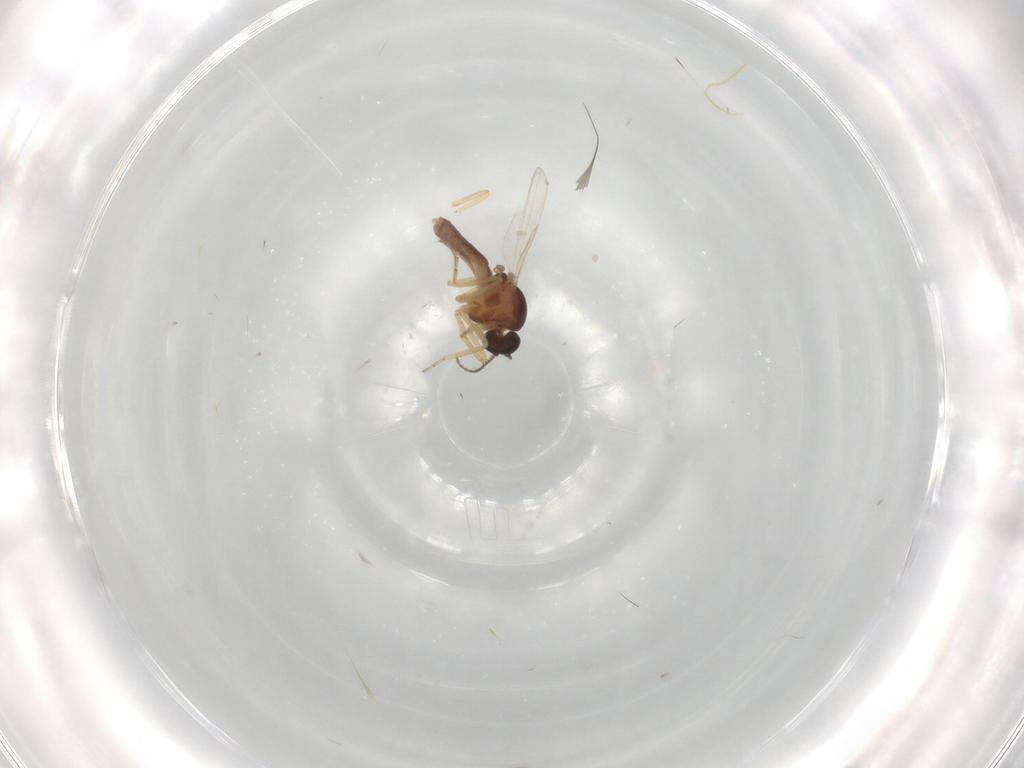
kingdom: Animalia
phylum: Arthropoda
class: Insecta
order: Diptera
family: Ceratopogonidae
